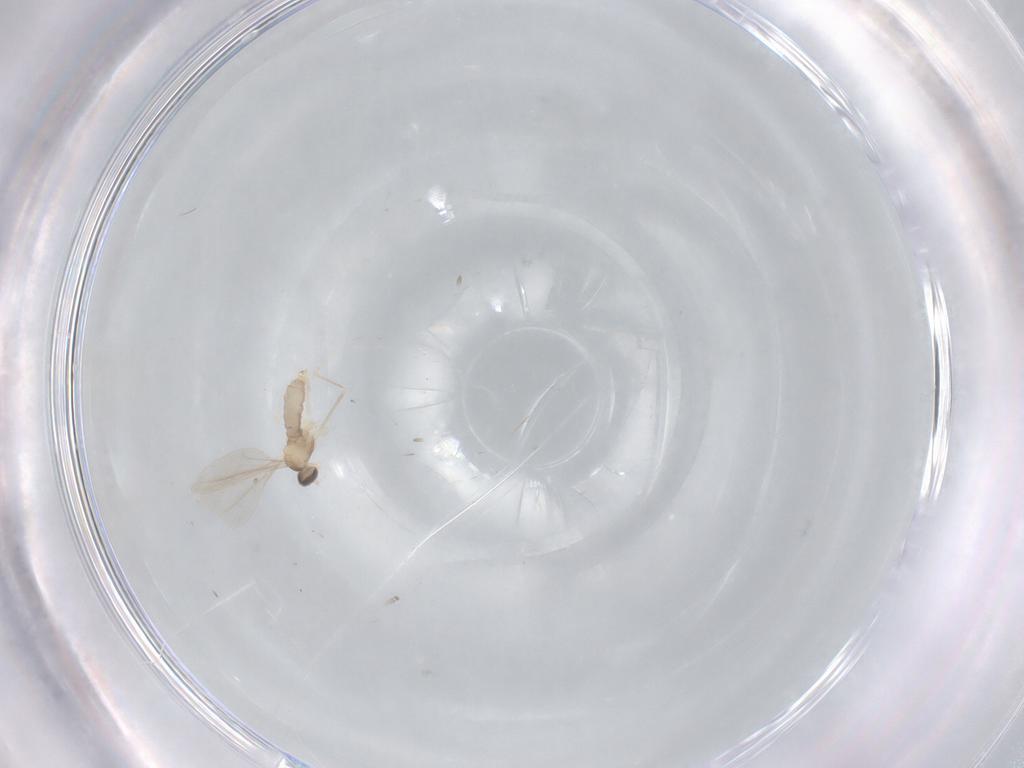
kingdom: Animalia
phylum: Arthropoda
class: Insecta
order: Diptera
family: Cecidomyiidae
